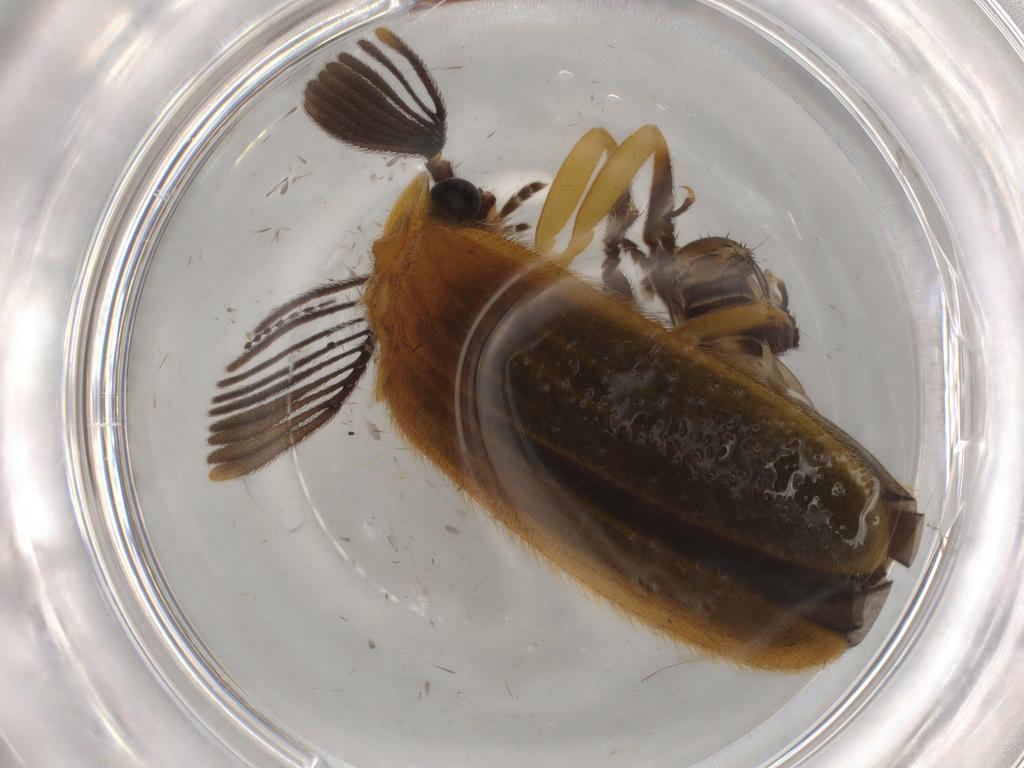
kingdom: Animalia
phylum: Arthropoda
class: Insecta
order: Coleoptera
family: Lampyridae
